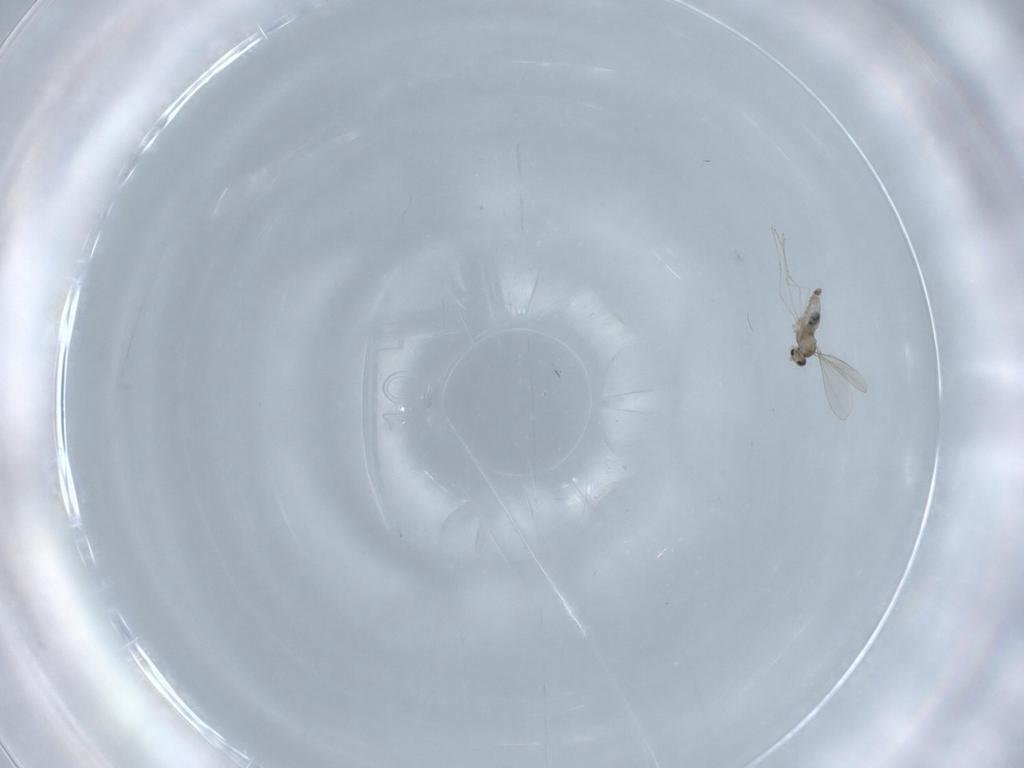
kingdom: Animalia
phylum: Arthropoda
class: Insecta
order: Diptera
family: Cecidomyiidae
